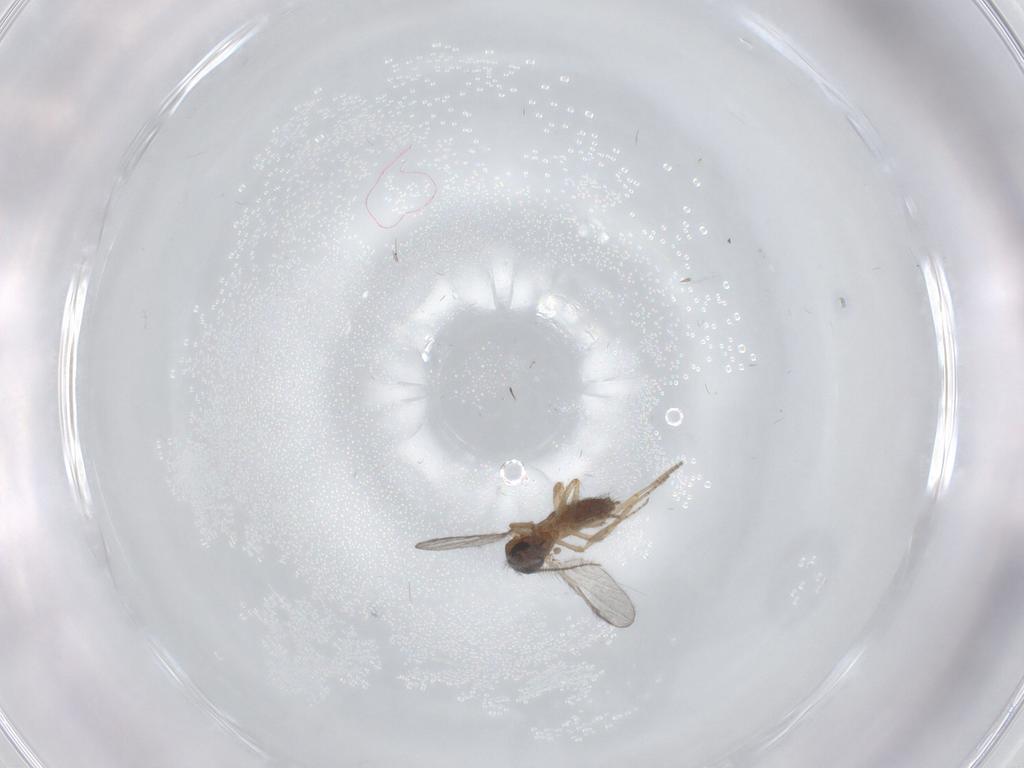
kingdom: Animalia
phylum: Arthropoda
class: Insecta
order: Diptera
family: Ceratopogonidae
